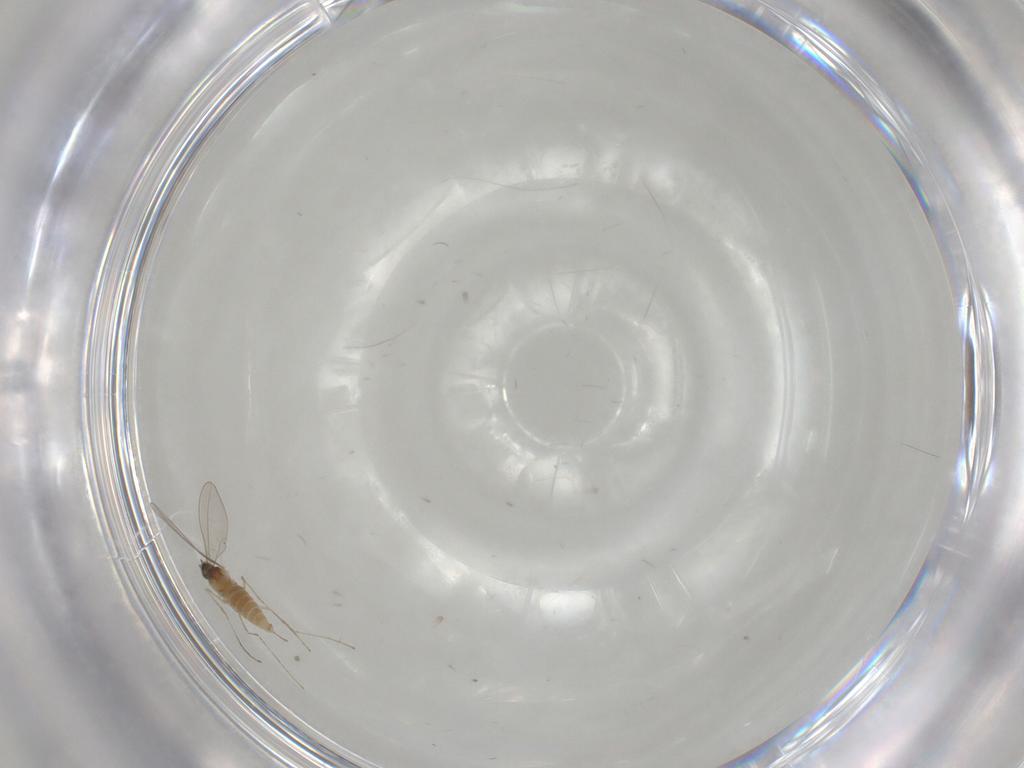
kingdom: Animalia
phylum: Arthropoda
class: Insecta
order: Diptera
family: Cecidomyiidae
